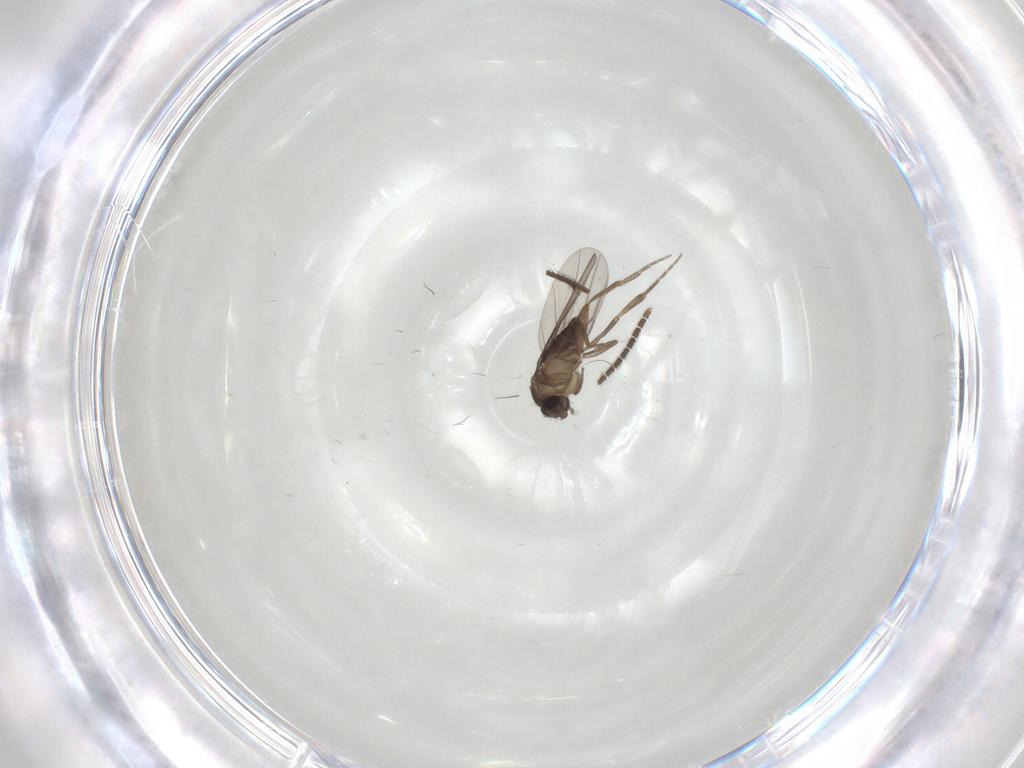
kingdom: Animalia
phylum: Arthropoda
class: Insecta
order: Diptera
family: Sciaridae
